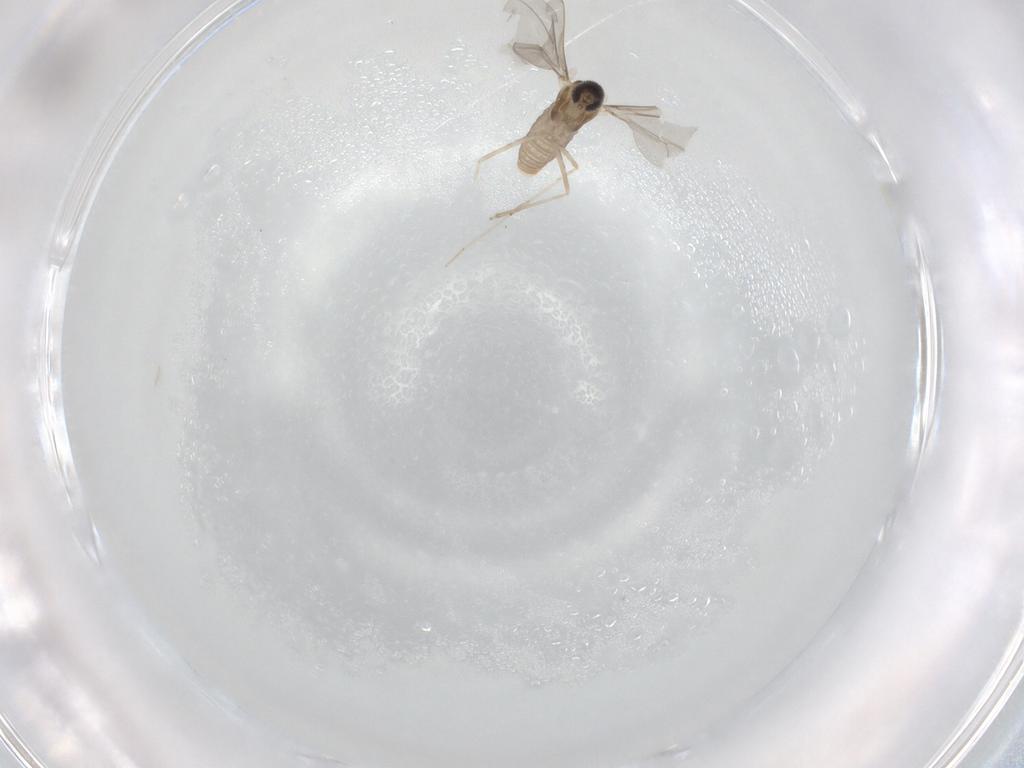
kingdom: Animalia
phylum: Arthropoda
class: Insecta
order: Diptera
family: Cecidomyiidae
